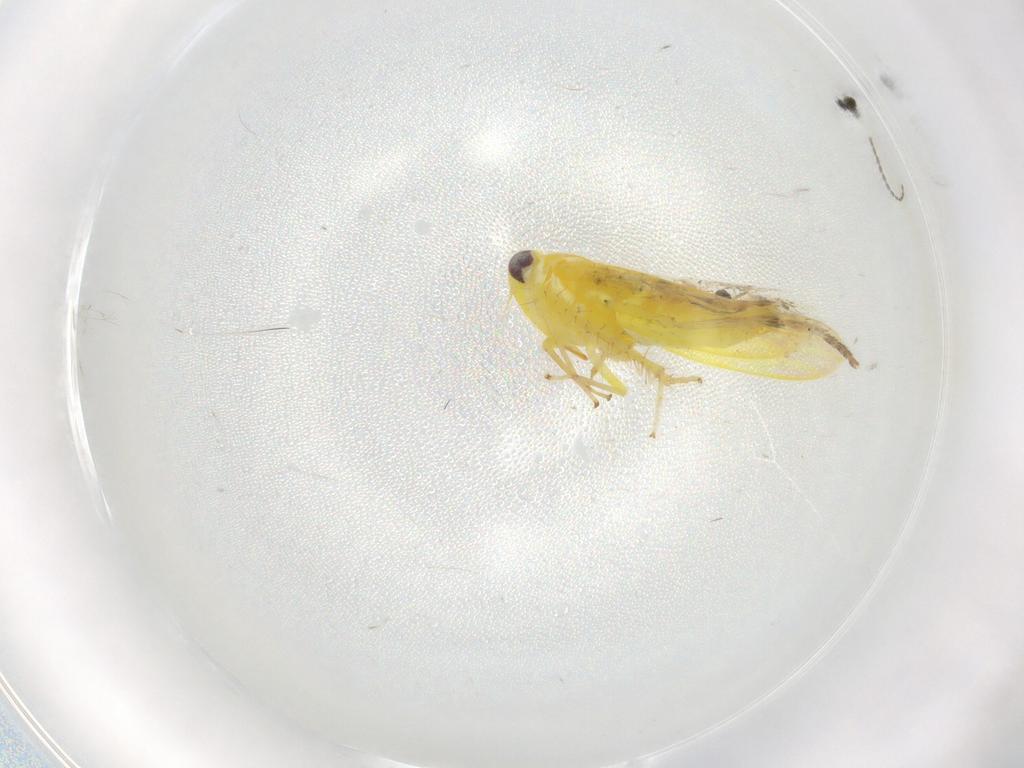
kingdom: Animalia
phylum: Arthropoda
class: Insecta
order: Hemiptera
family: Cicadellidae
